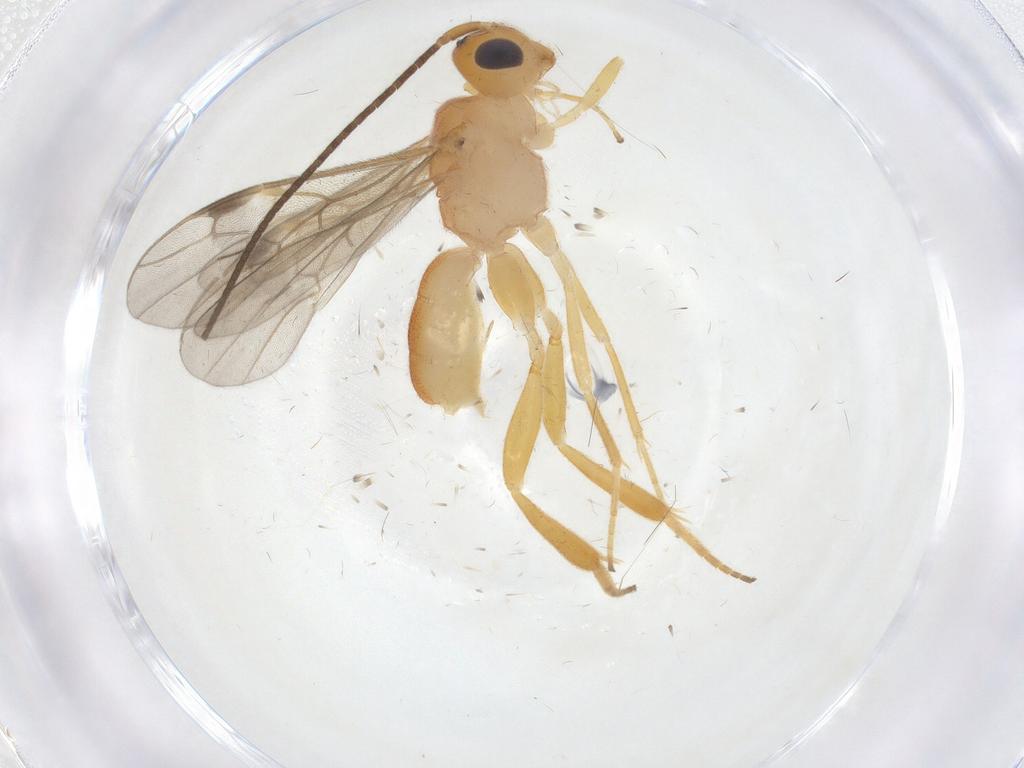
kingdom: Animalia
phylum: Arthropoda
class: Insecta
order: Hymenoptera
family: Braconidae
